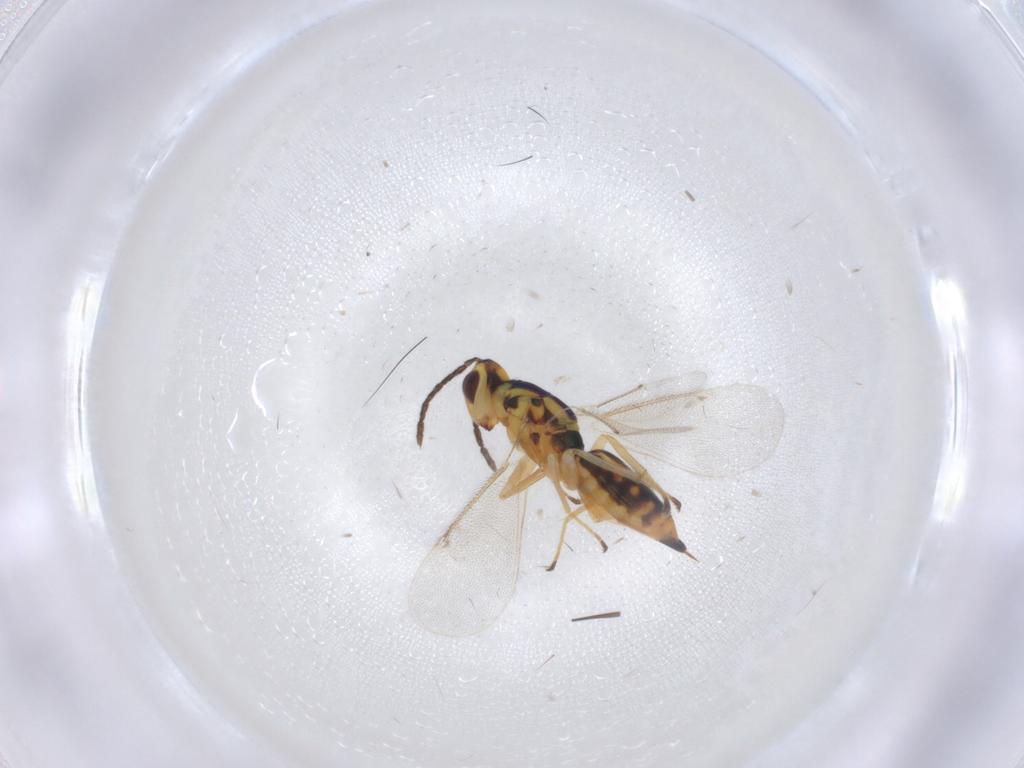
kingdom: Animalia
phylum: Arthropoda
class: Insecta
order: Hymenoptera
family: Eulophidae
